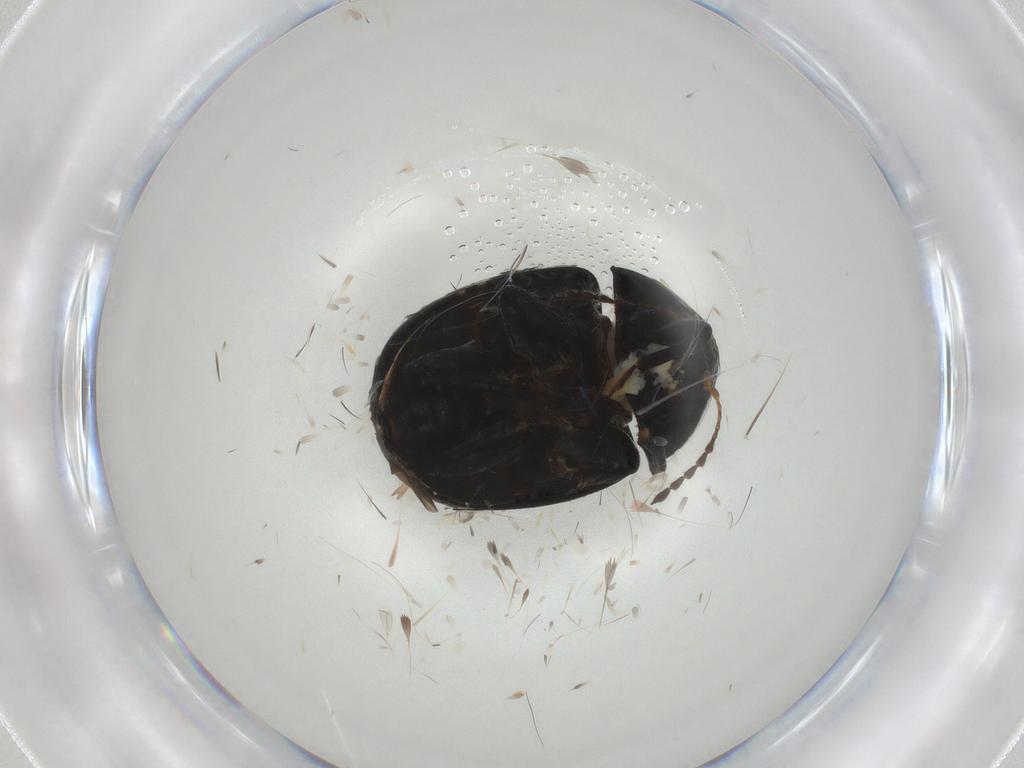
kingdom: Animalia
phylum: Arthropoda
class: Insecta
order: Coleoptera
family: Chrysomelidae
